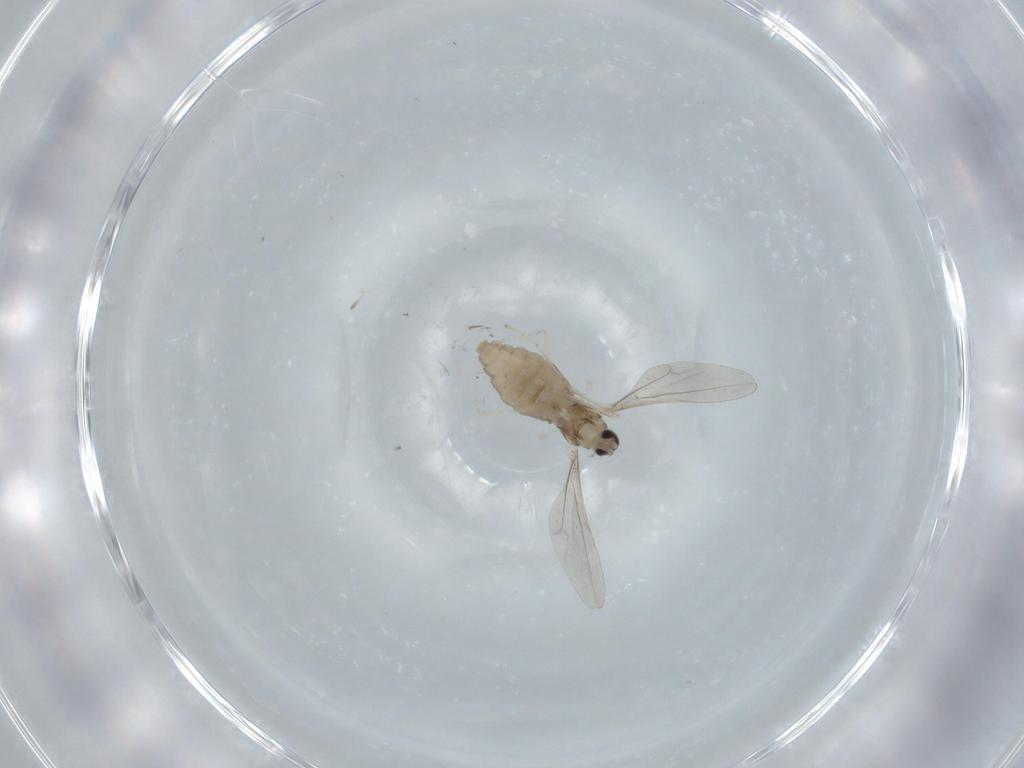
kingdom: Animalia
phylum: Arthropoda
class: Insecta
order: Diptera
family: Cecidomyiidae
